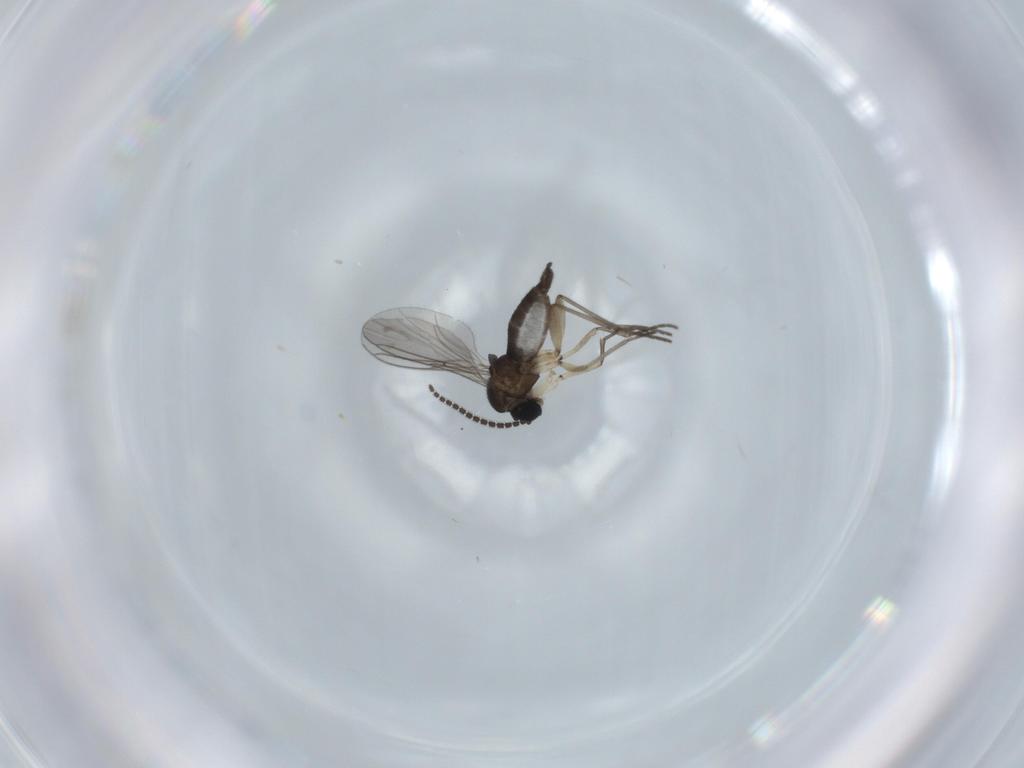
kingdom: Animalia
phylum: Arthropoda
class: Insecta
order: Diptera
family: Sciaridae
